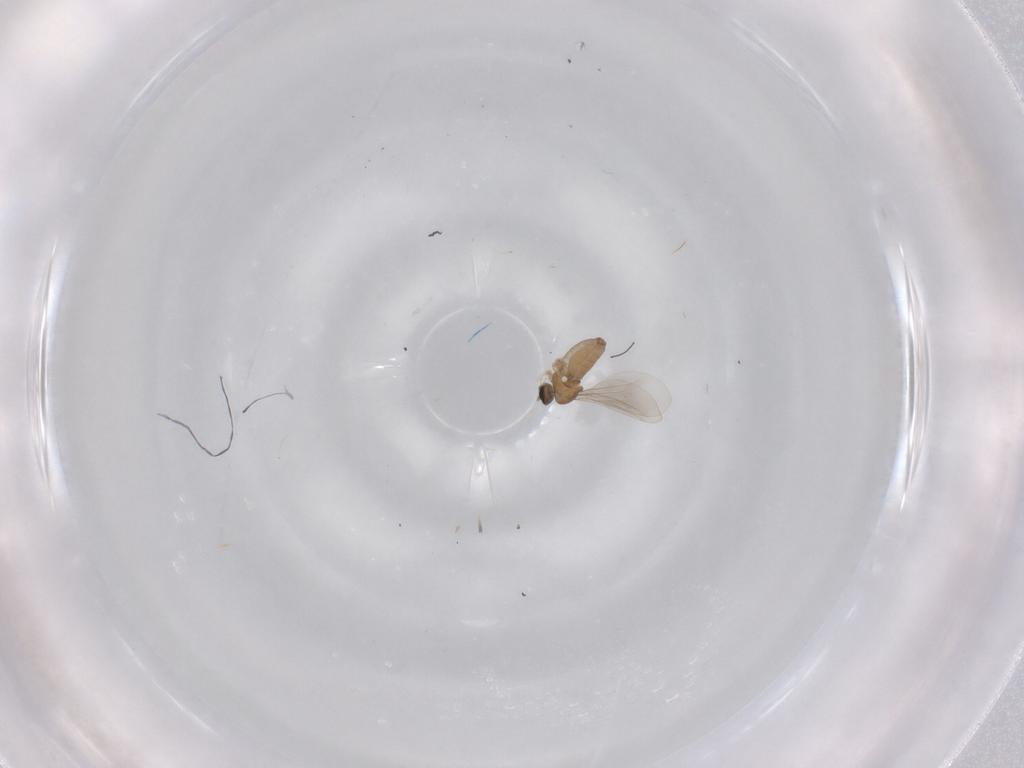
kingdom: Animalia
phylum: Arthropoda
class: Insecta
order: Diptera
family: Cecidomyiidae
